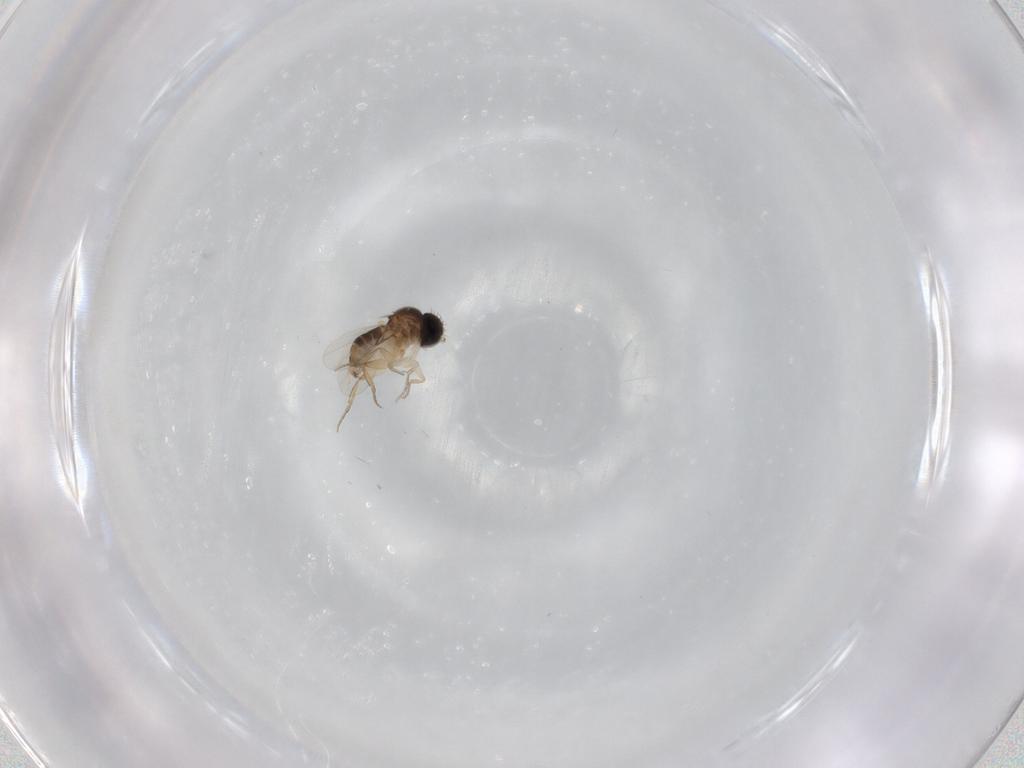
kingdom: Animalia
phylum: Arthropoda
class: Insecta
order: Diptera
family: Phoridae
